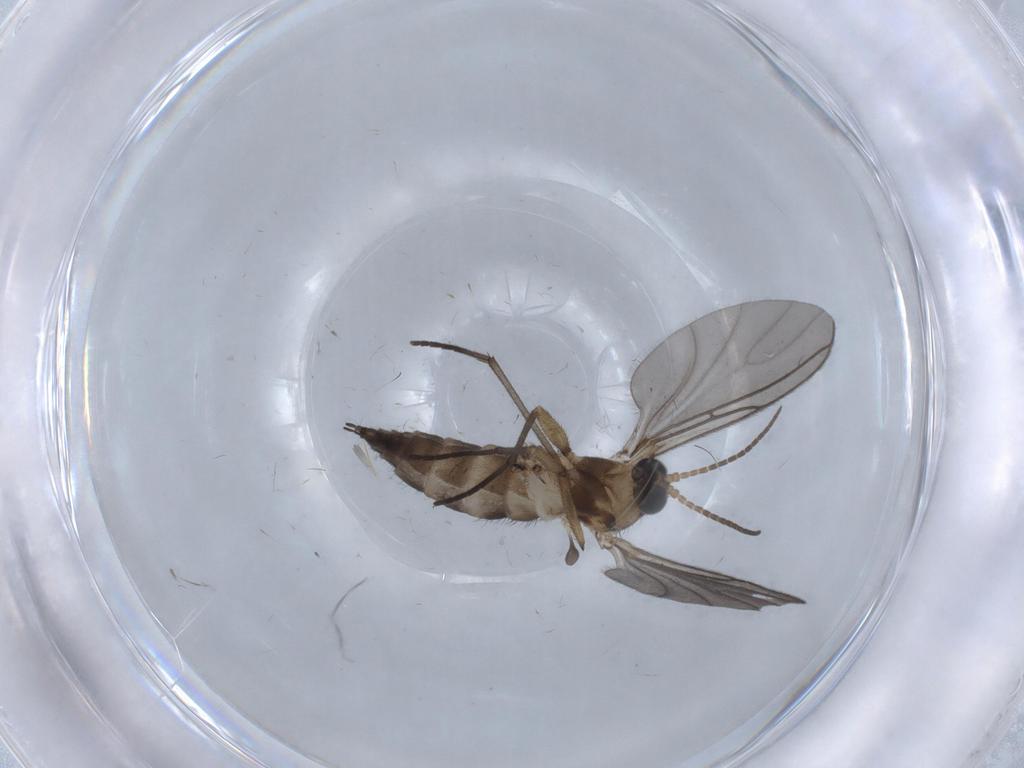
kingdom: Animalia
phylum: Arthropoda
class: Insecta
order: Diptera
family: Sciaridae
